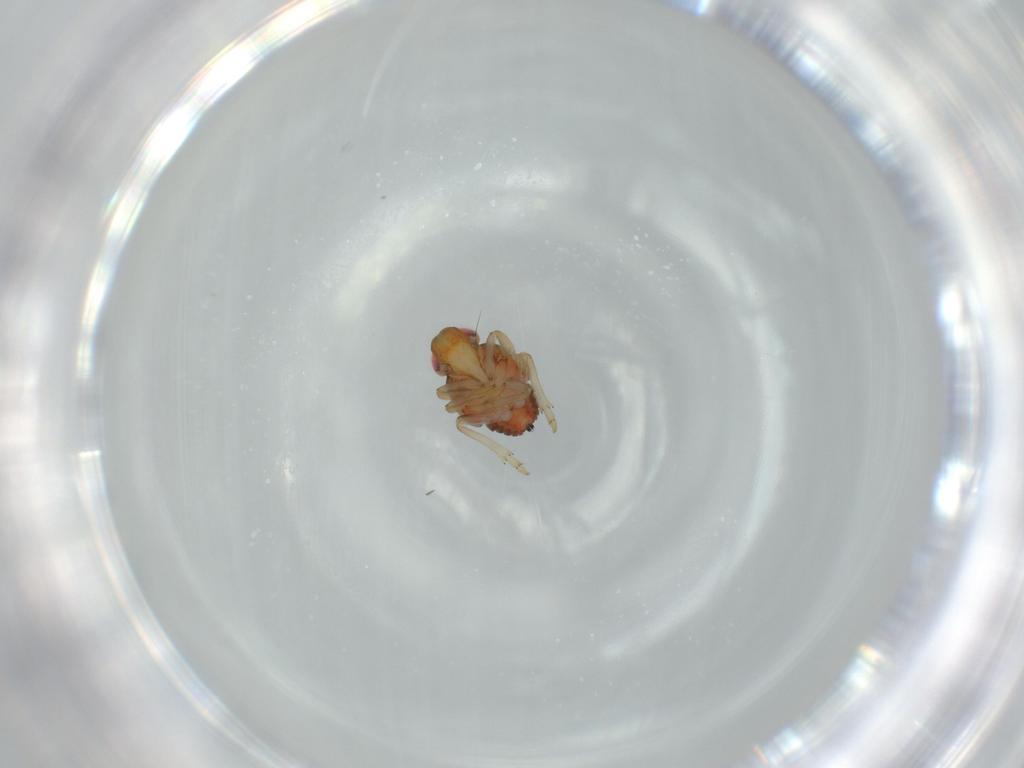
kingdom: Animalia
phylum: Arthropoda
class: Insecta
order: Hemiptera
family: Issidae
